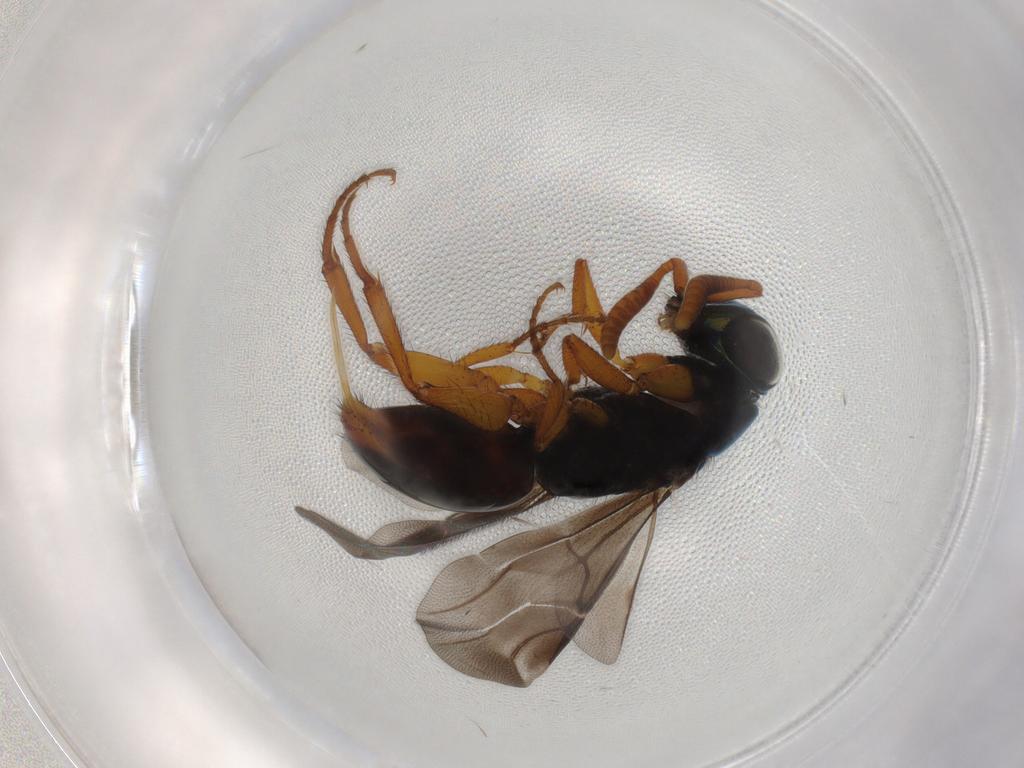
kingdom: Animalia
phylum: Arthropoda
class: Insecta
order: Hymenoptera
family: Chrysididae
